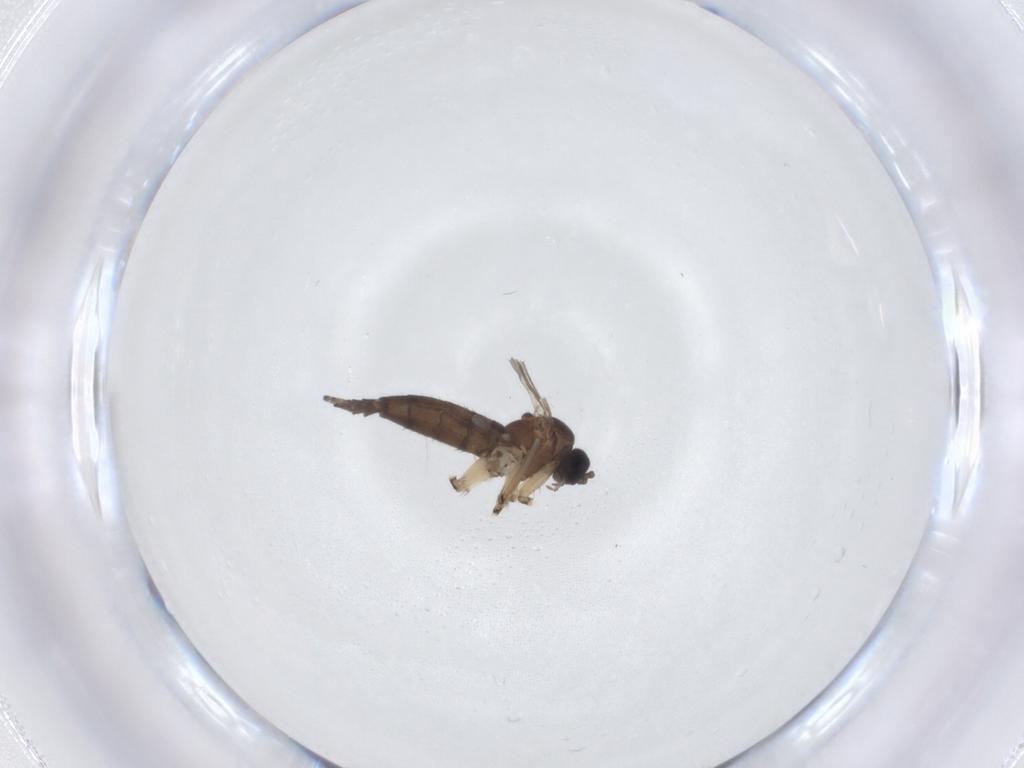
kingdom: Animalia
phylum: Arthropoda
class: Insecta
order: Diptera
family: Sciaridae
